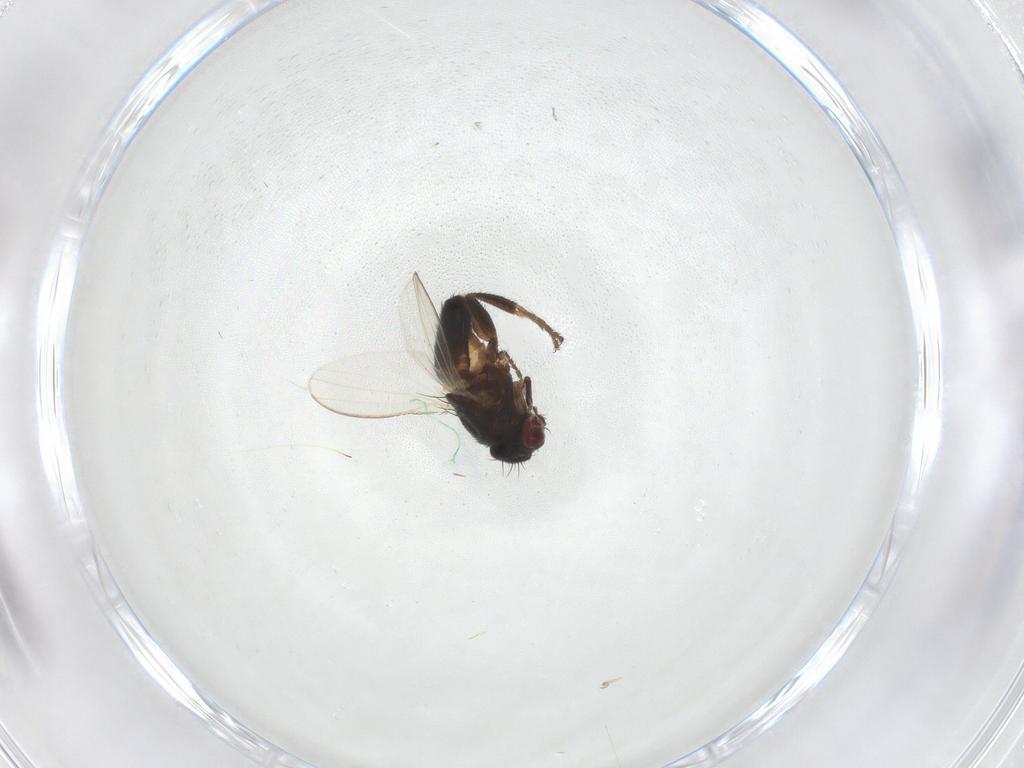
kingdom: Animalia
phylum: Arthropoda
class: Insecta
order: Diptera
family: Milichiidae
